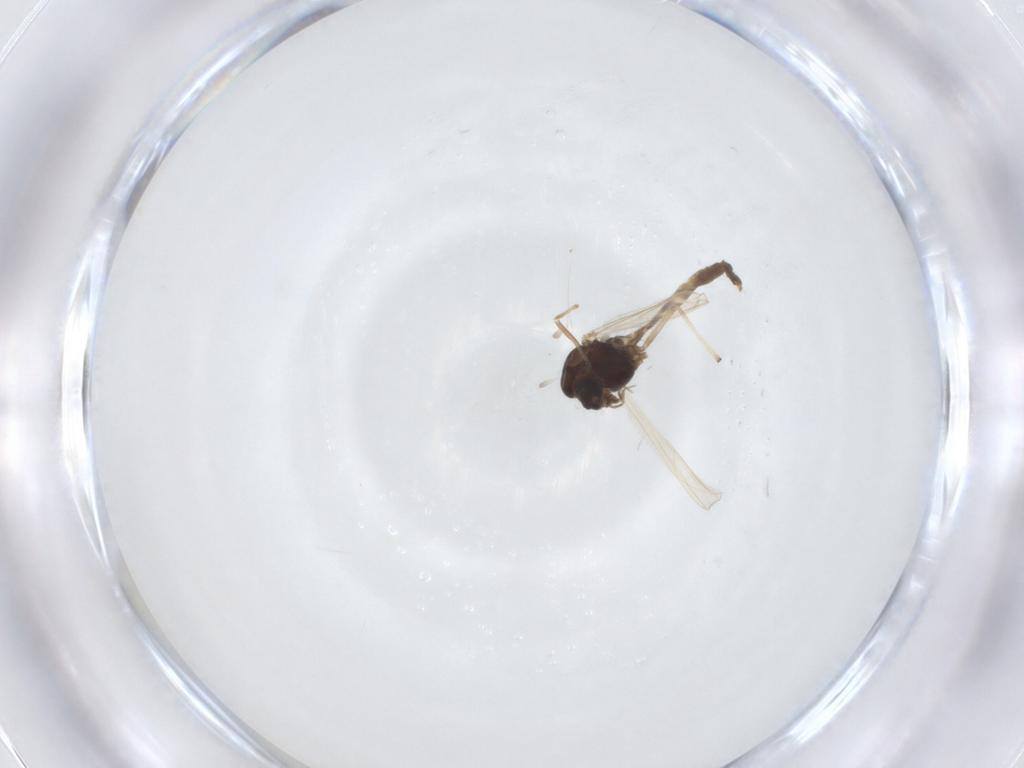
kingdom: Animalia
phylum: Arthropoda
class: Insecta
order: Diptera
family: Chironomidae
